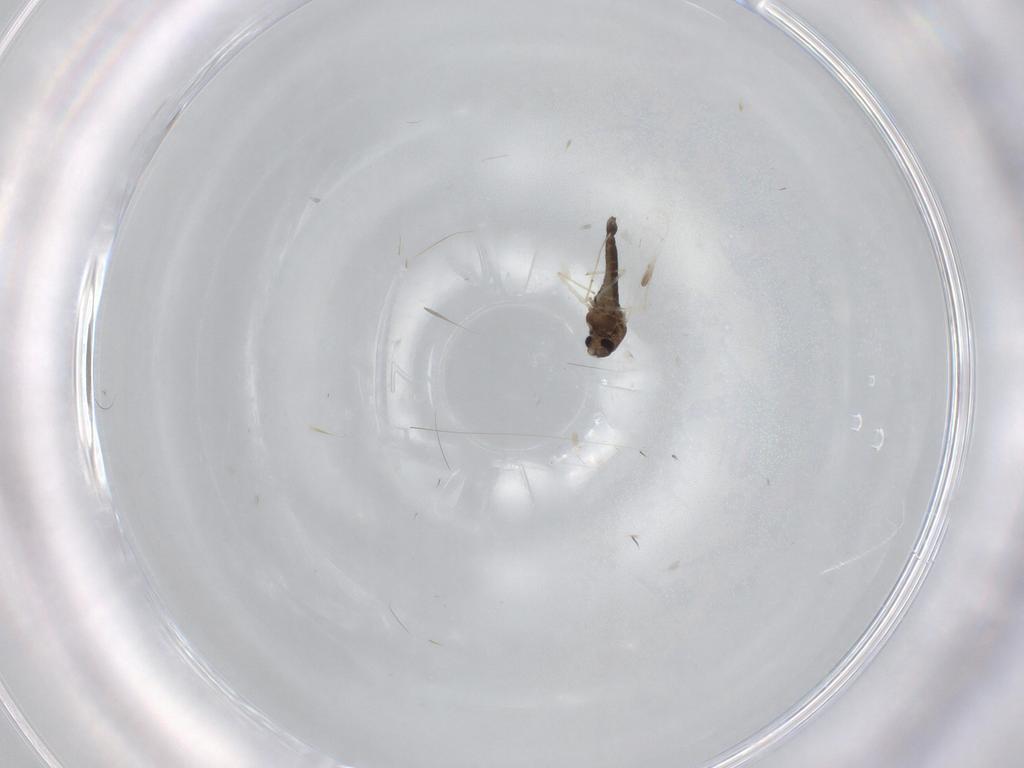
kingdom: Animalia
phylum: Arthropoda
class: Insecta
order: Diptera
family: Chironomidae
